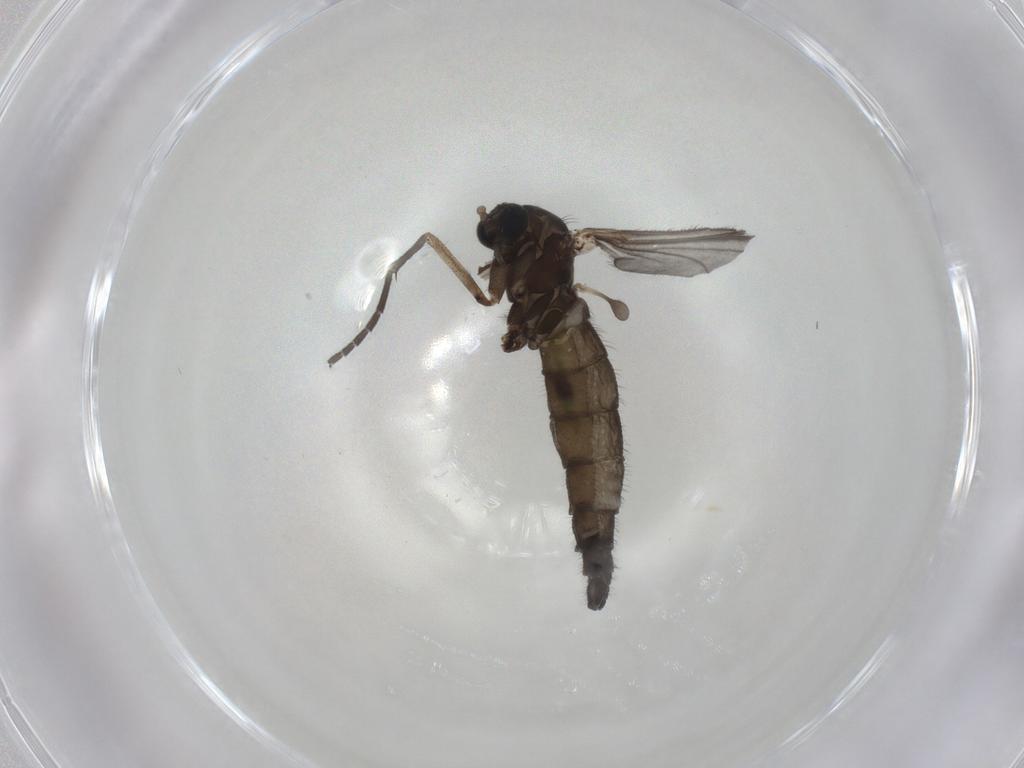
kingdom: Animalia
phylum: Arthropoda
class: Insecta
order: Diptera
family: Sciaridae
